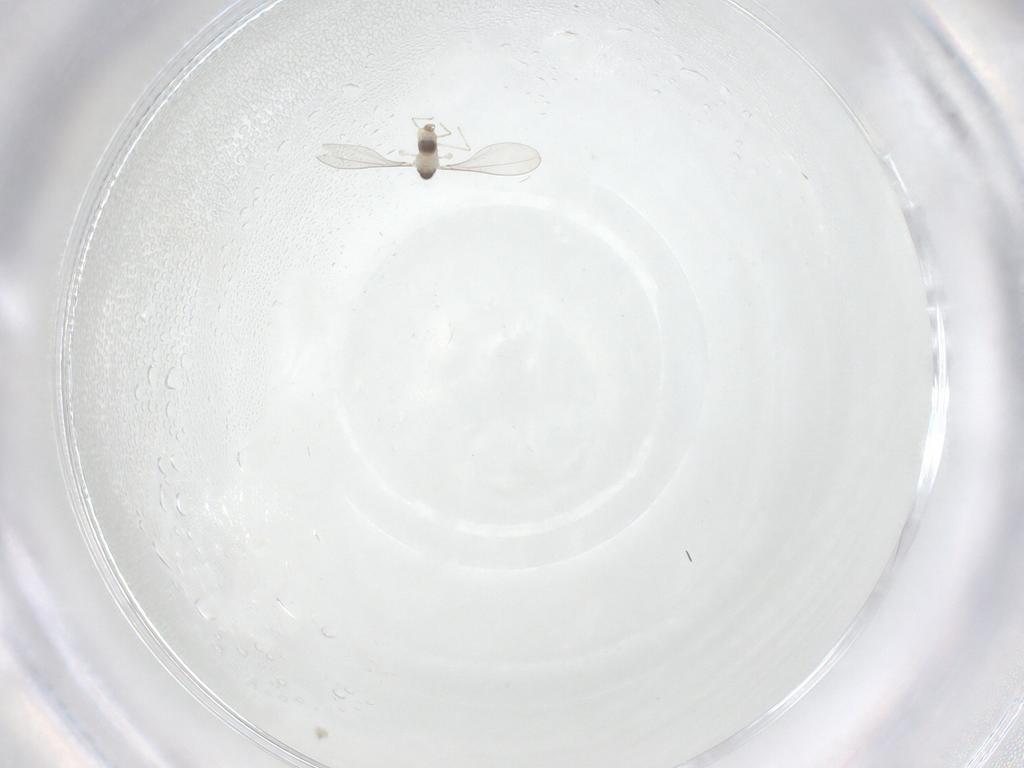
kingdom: Animalia
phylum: Arthropoda
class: Insecta
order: Diptera
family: Cecidomyiidae
